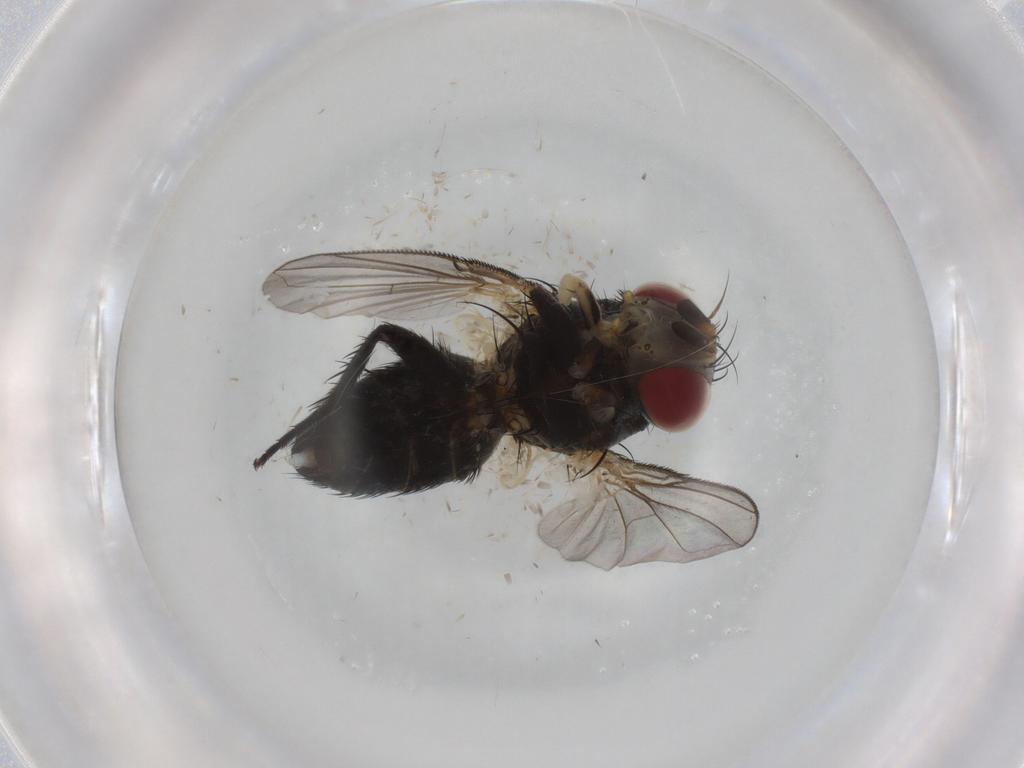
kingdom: Animalia
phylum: Arthropoda
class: Insecta
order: Diptera
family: Tachinidae
